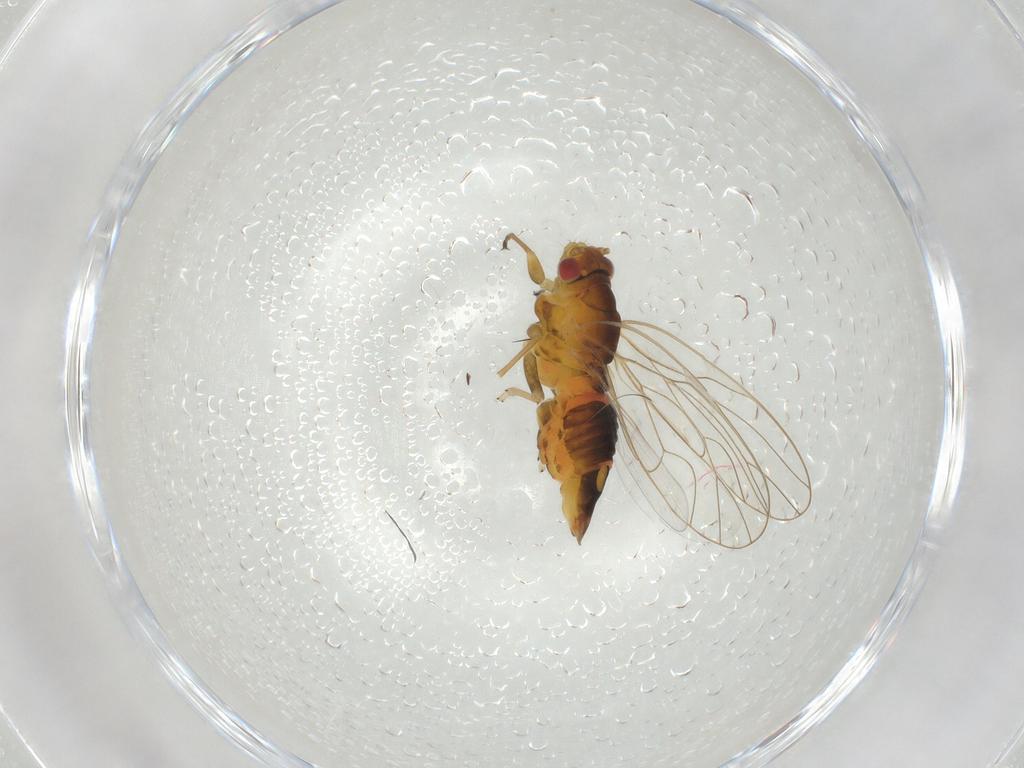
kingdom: Animalia
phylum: Arthropoda
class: Insecta
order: Hemiptera
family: Psyllidae
